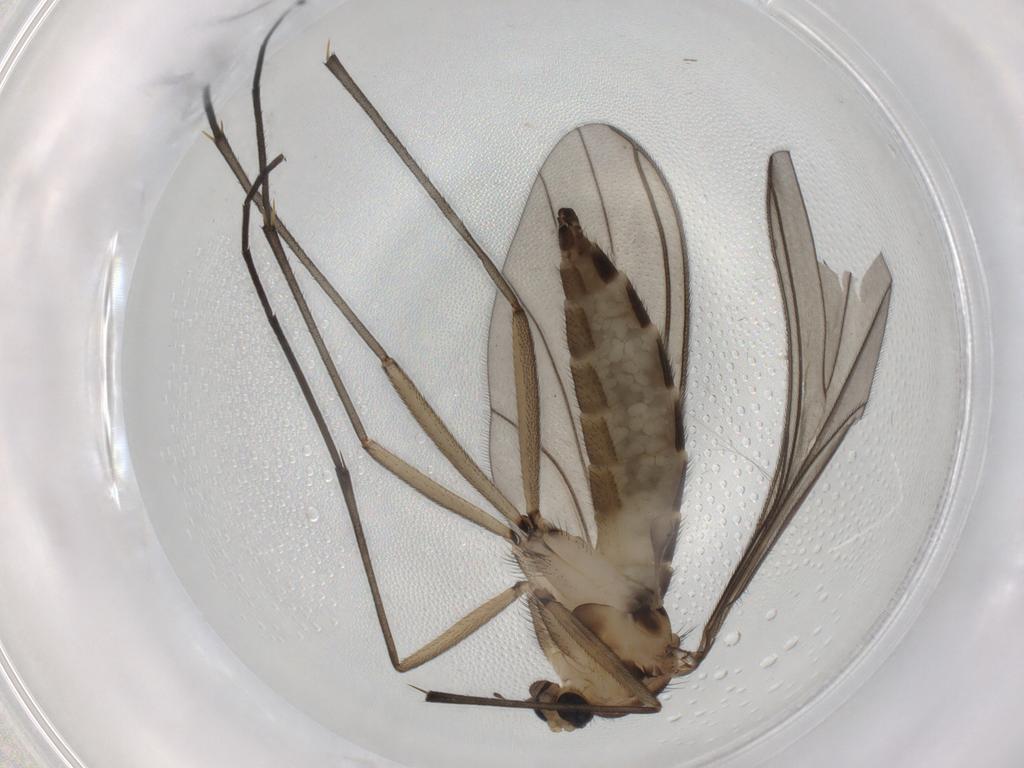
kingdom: Animalia
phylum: Arthropoda
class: Insecta
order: Diptera
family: Sciaridae
